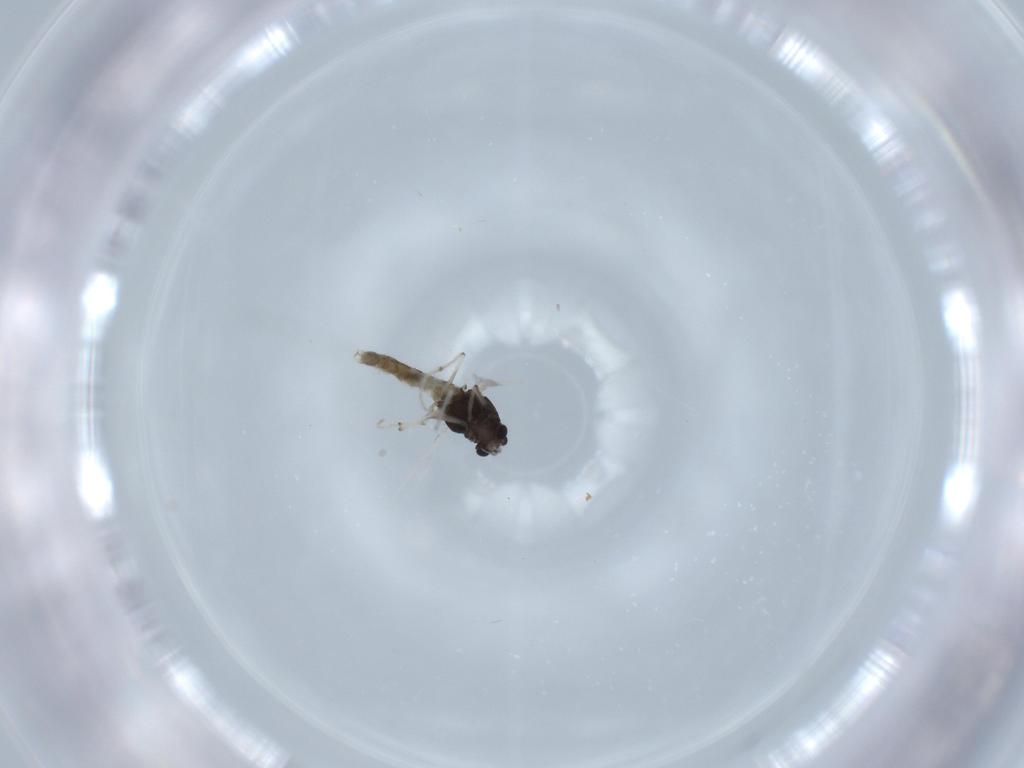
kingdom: Animalia
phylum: Arthropoda
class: Insecta
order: Diptera
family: Chironomidae
